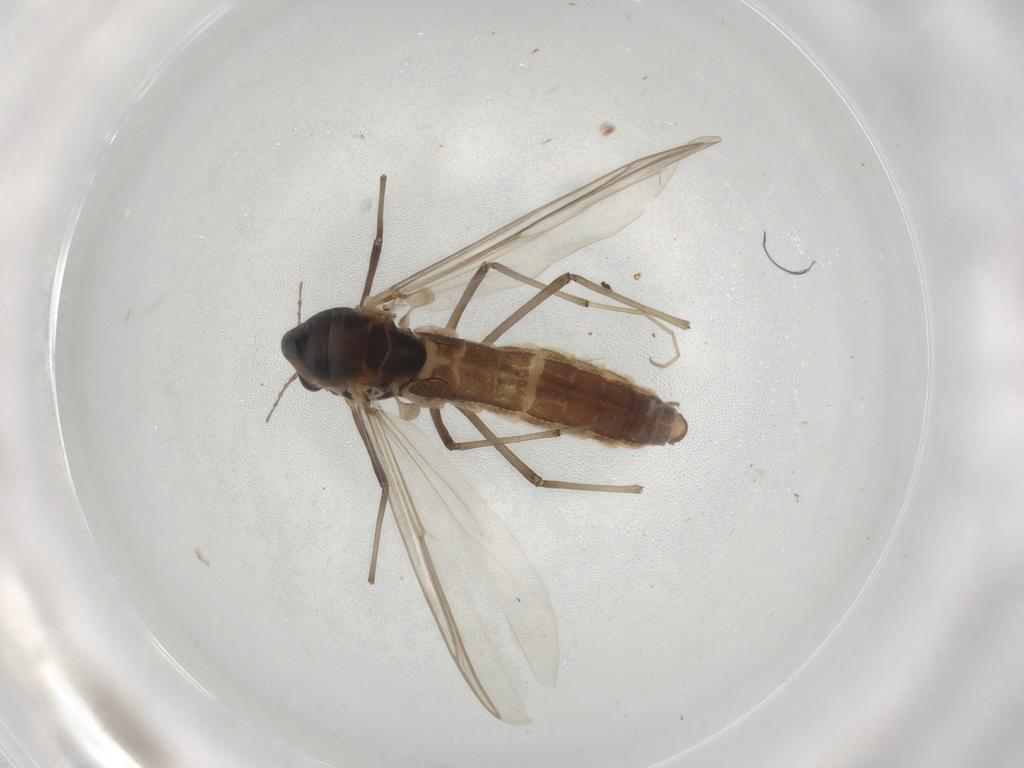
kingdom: Animalia
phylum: Arthropoda
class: Insecta
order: Diptera
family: Chironomidae
